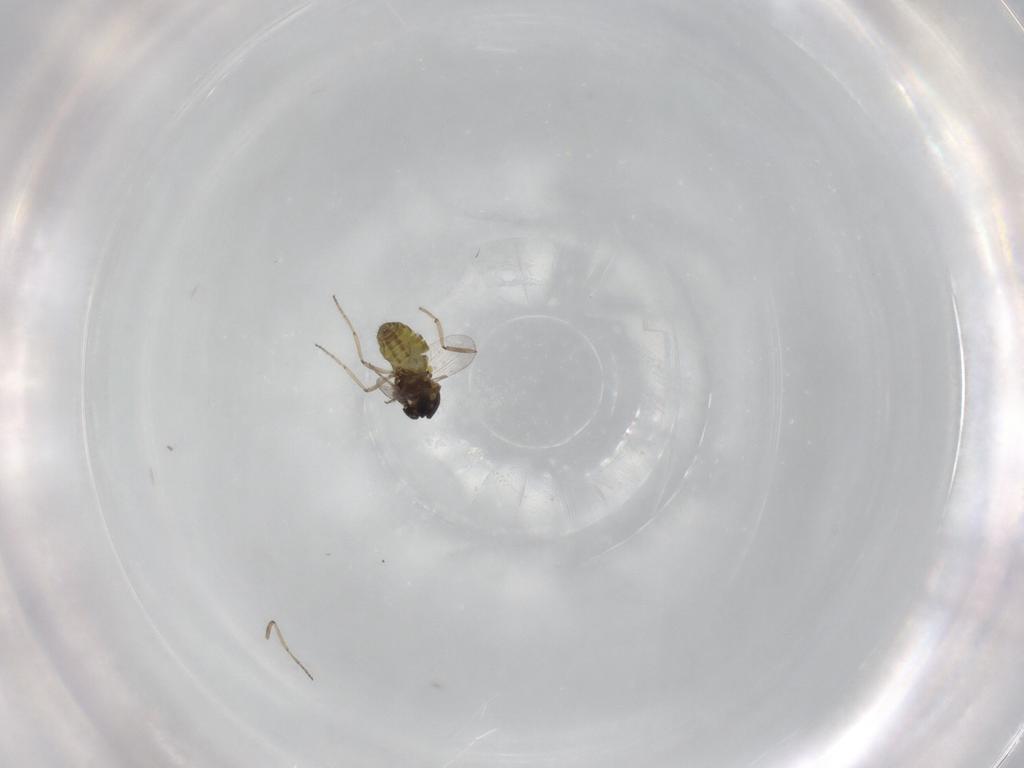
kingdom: Animalia
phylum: Arthropoda
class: Insecta
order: Diptera
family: Ceratopogonidae
